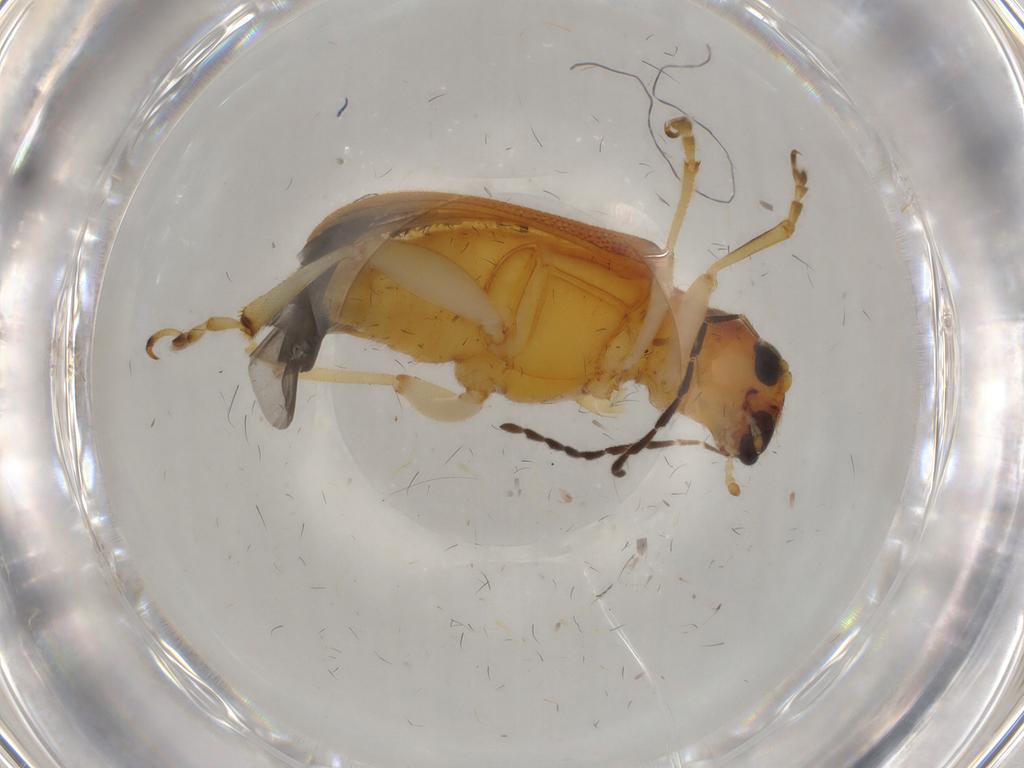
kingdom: Animalia
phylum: Arthropoda
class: Insecta
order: Coleoptera
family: Chrysomelidae
